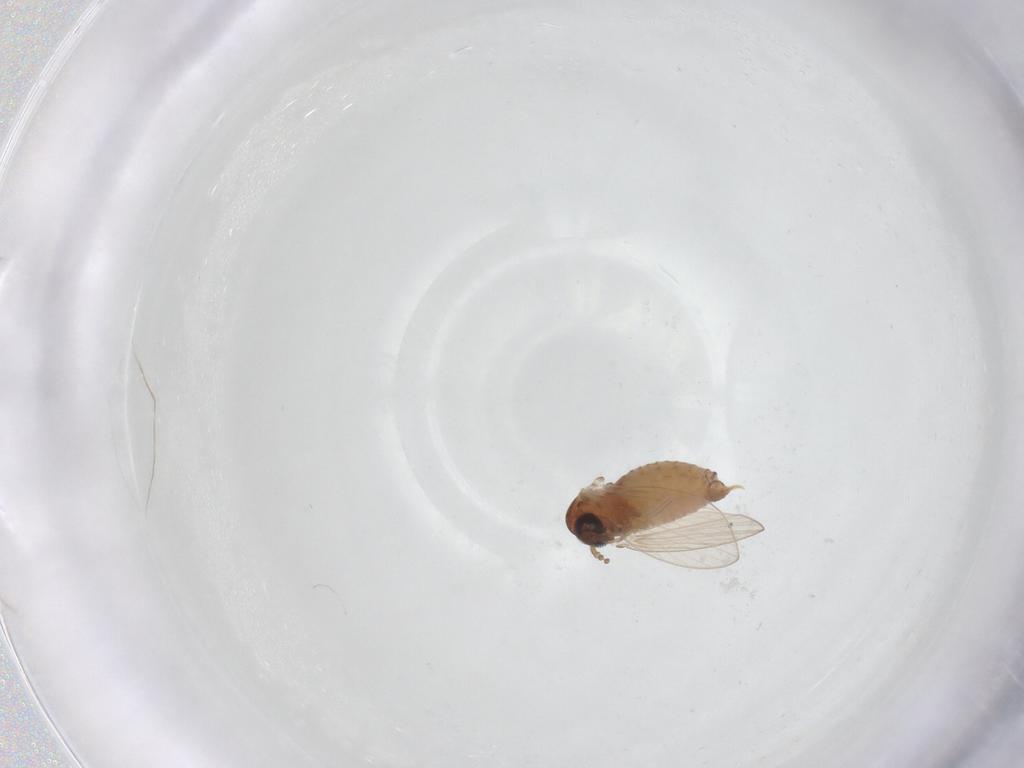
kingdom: Animalia
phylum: Arthropoda
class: Insecta
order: Diptera
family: Psychodidae
